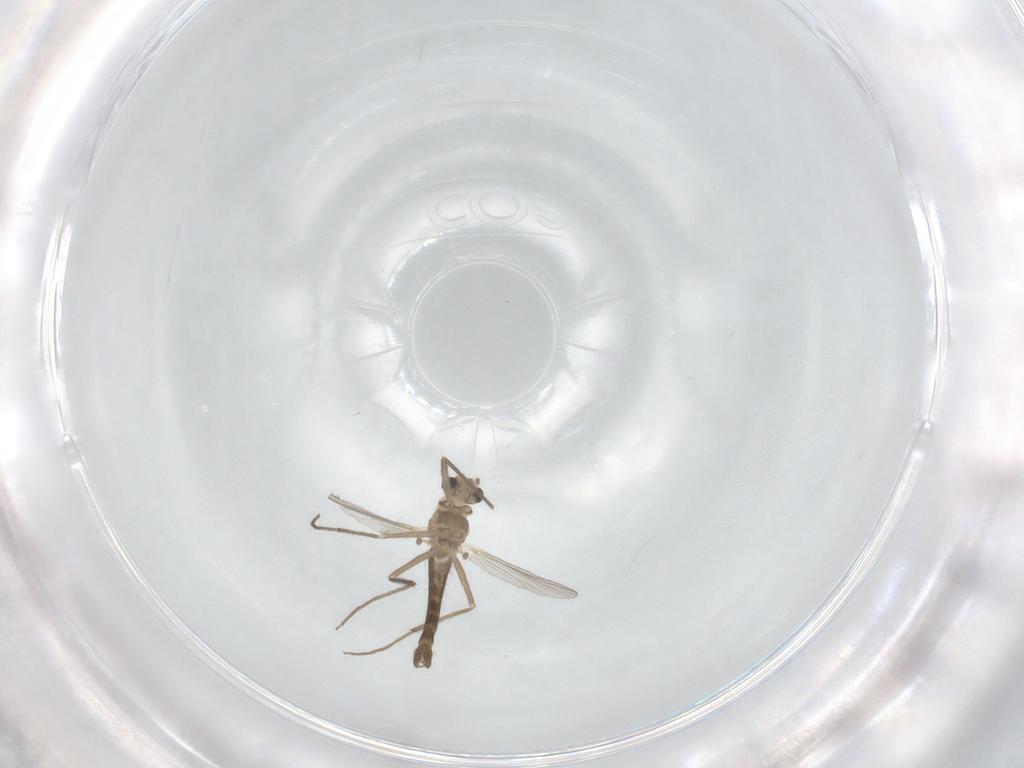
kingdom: Animalia
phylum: Arthropoda
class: Insecta
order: Diptera
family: Chironomidae
